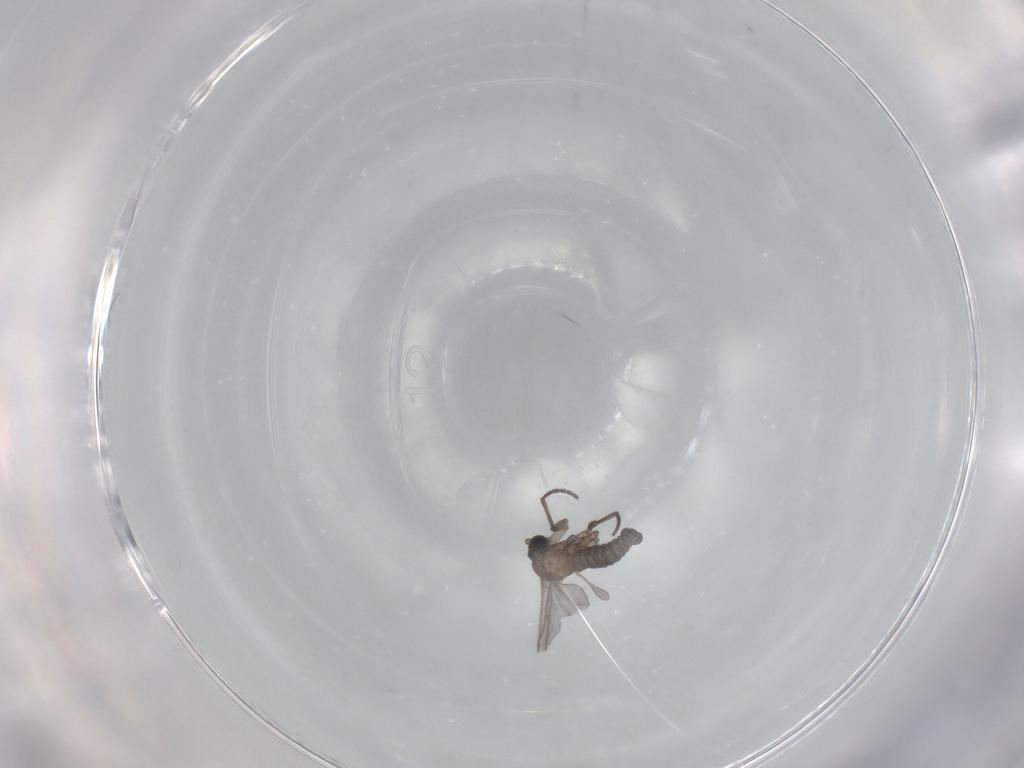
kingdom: Animalia
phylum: Arthropoda
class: Insecta
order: Diptera
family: Sciaridae
